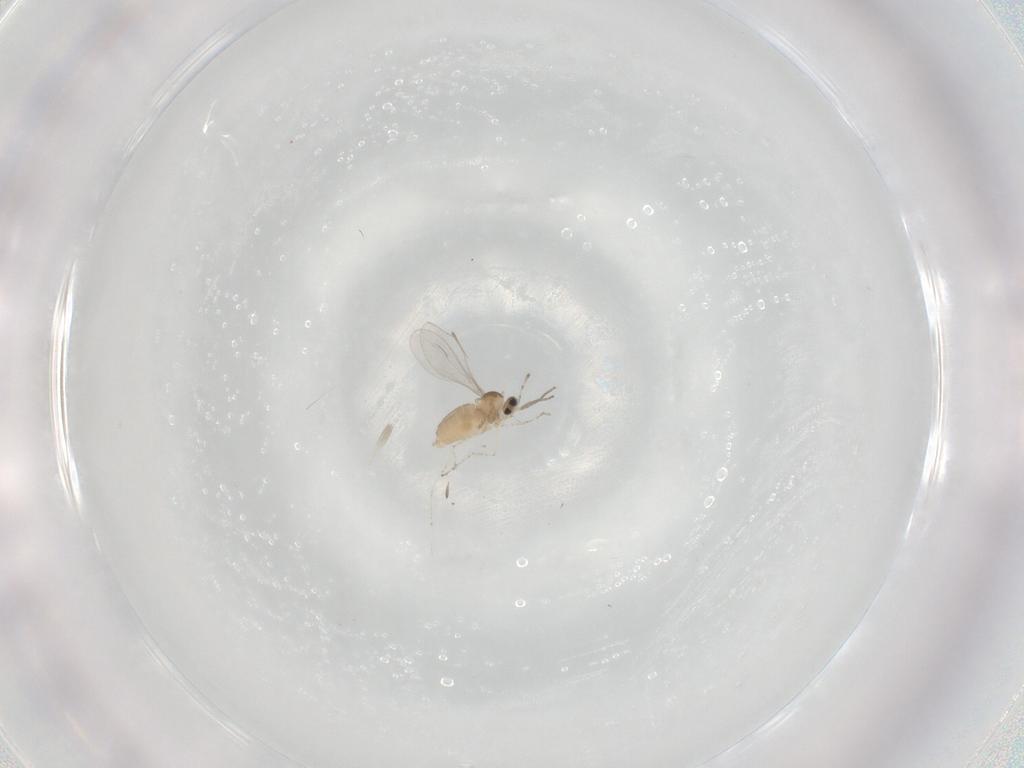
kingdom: Animalia
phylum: Arthropoda
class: Insecta
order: Diptera
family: Cecidomyiidae
